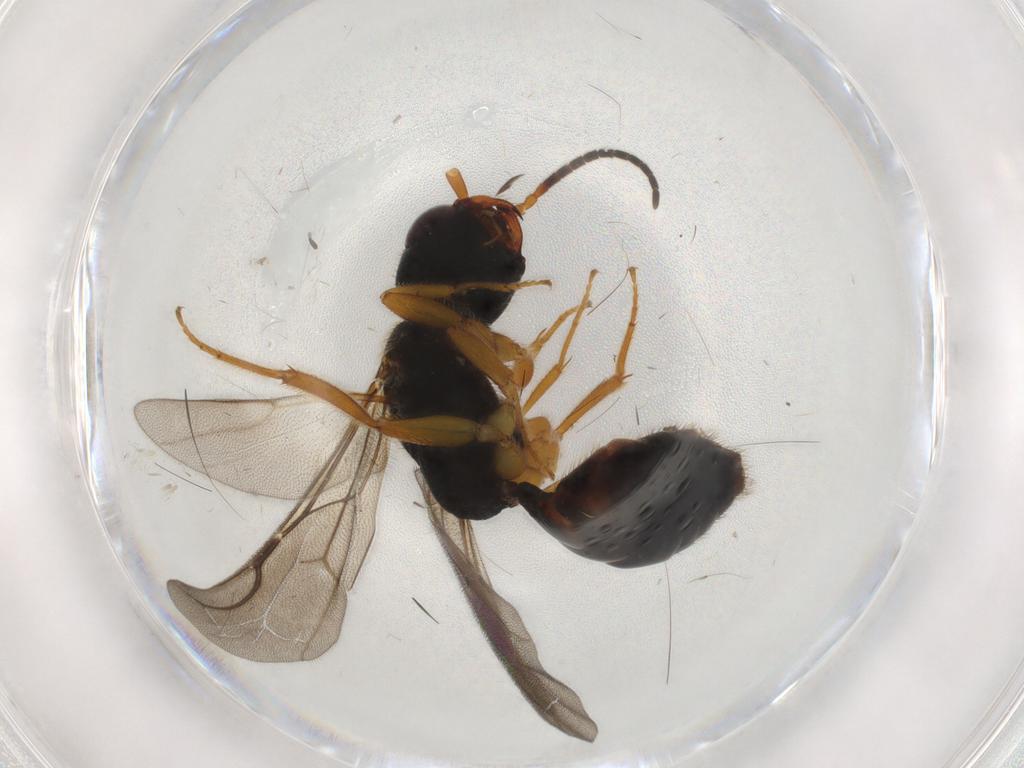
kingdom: Animalia
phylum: Arthropoda
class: Insecta
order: Hymenoptera
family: Bethylidae
